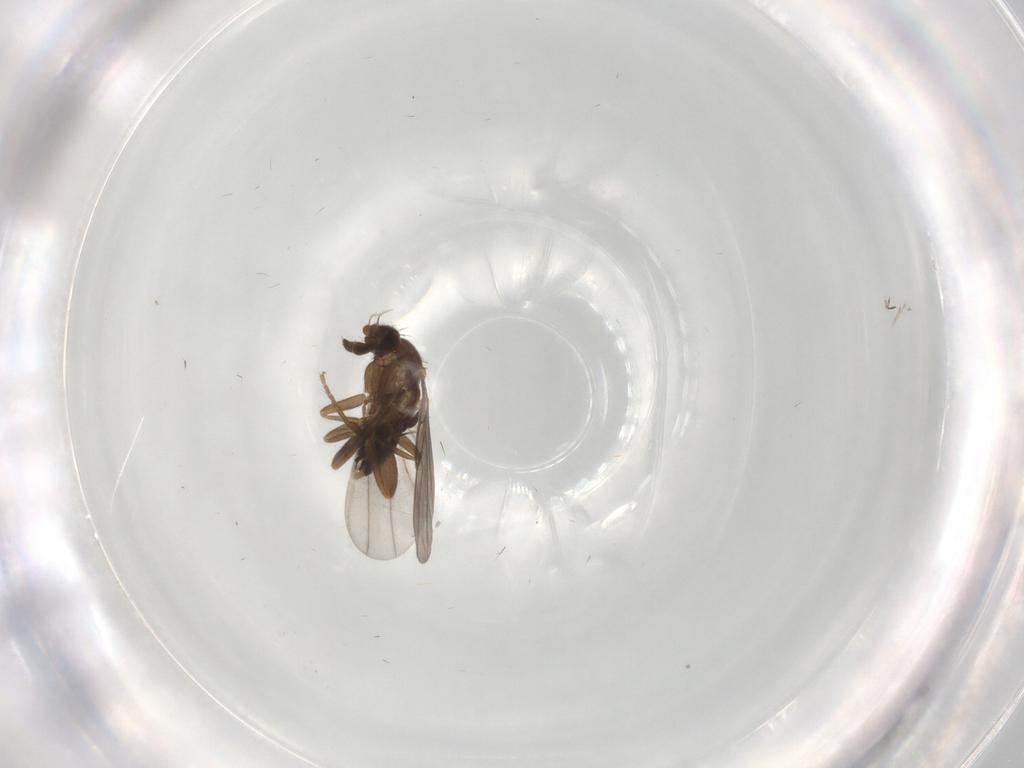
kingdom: Animalia
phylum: Arthropoda
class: Insecta
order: Diptera
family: Phoridae
